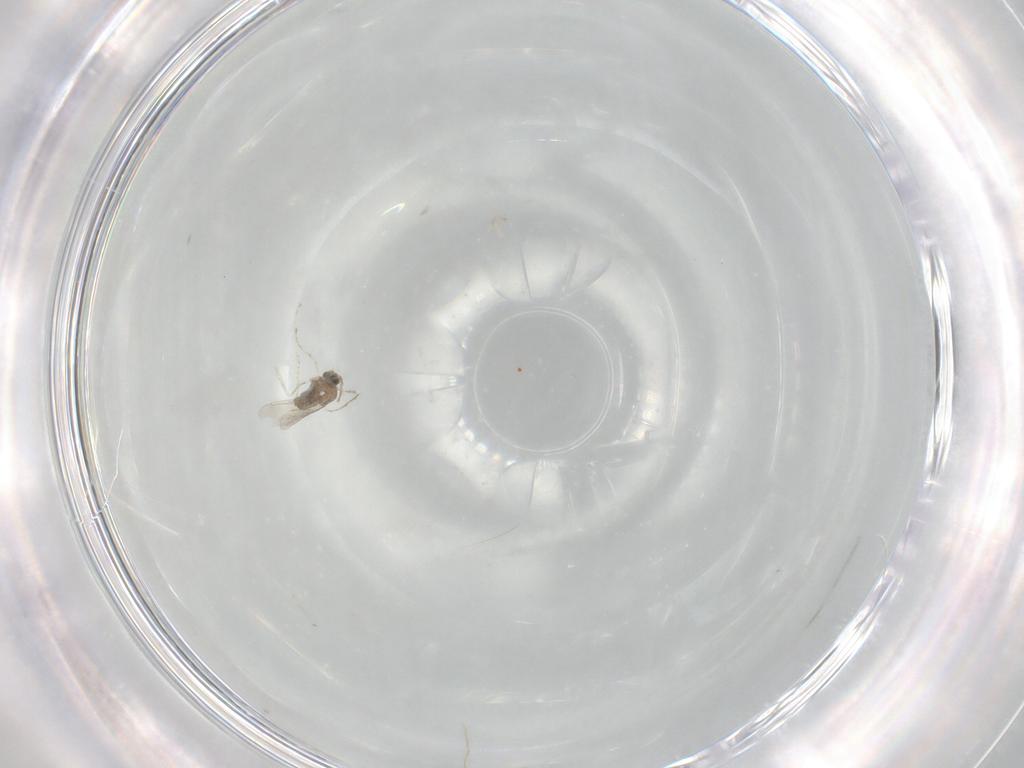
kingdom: Animalia
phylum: Arthropoda
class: Insecta
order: Diptera
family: Cecidomyiidae
